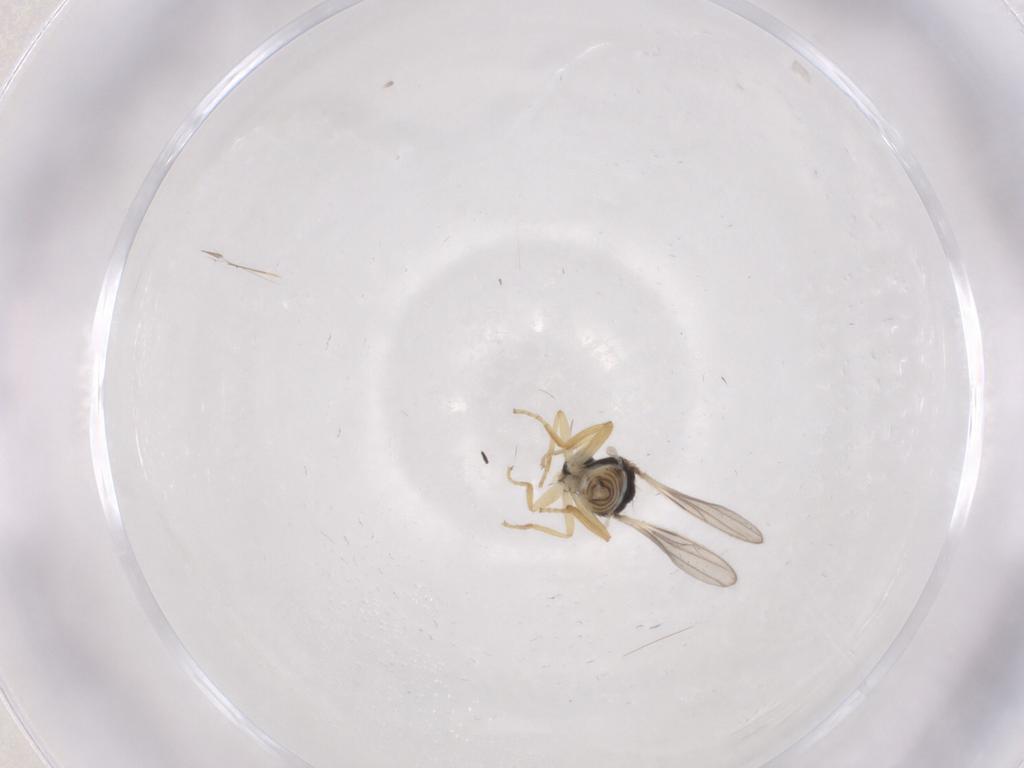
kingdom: Animalia
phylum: Arthropoda
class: Insecta
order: Diptera
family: Hybotidae
